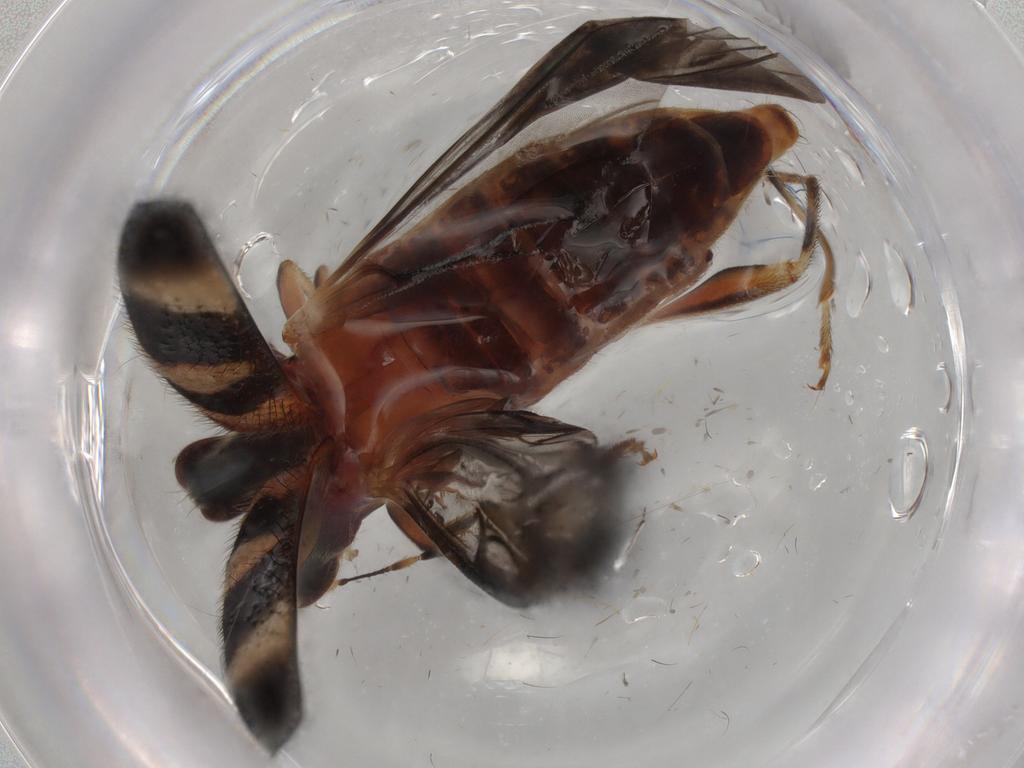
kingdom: Animalia
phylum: Arthropoda
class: Insecta
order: Coleoptera
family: Cleridae
